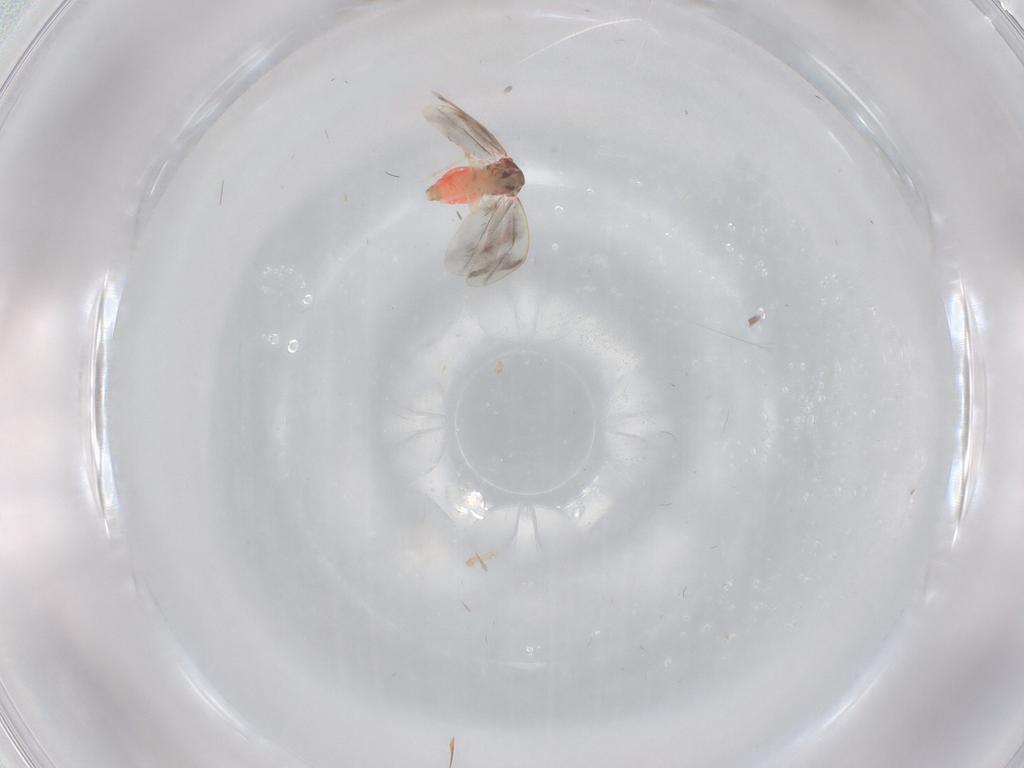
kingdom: Animalia
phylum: Arthropoda
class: Insecta
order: Hemiptera
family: Aleyrodidae
